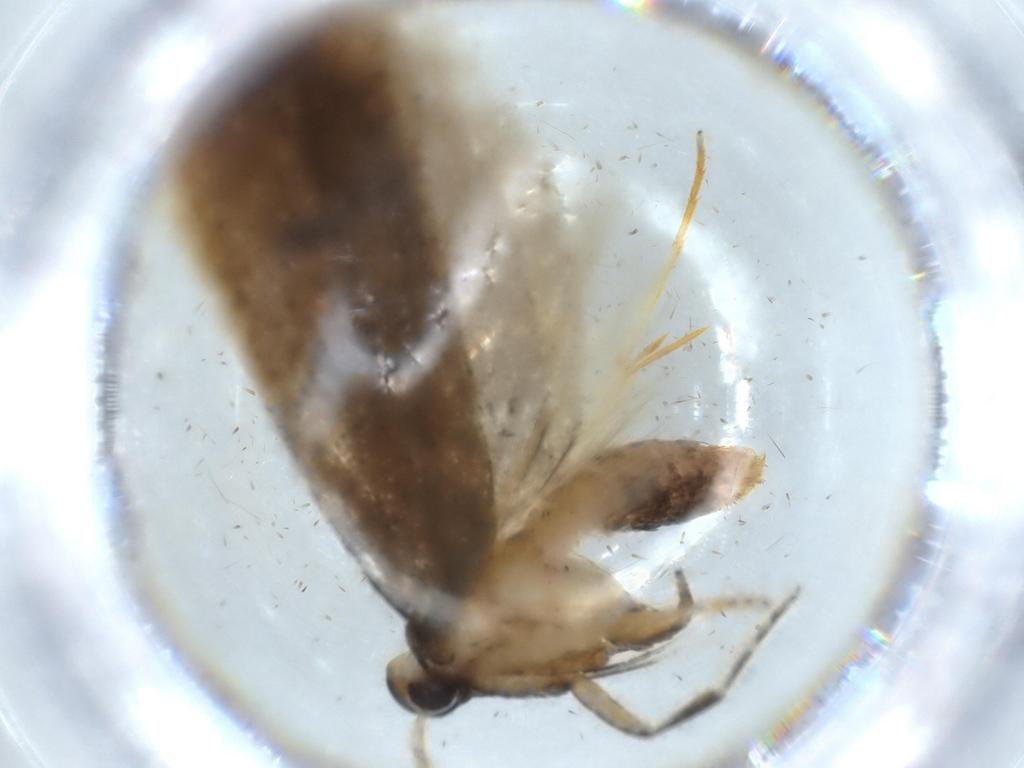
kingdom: Animalia
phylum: Arthropoda
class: Insecta
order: Lepidoptera
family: Lecithoceridae
